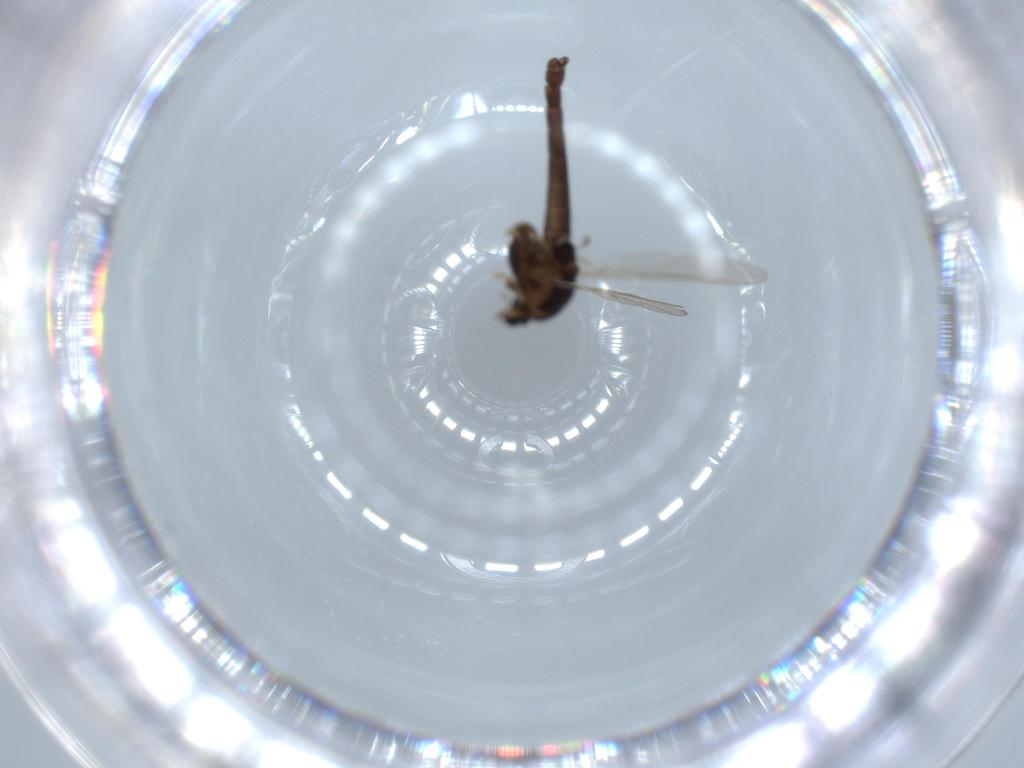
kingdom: Animalia
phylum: Arthropoda
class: Insecta
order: Diptera
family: Chironomidae
